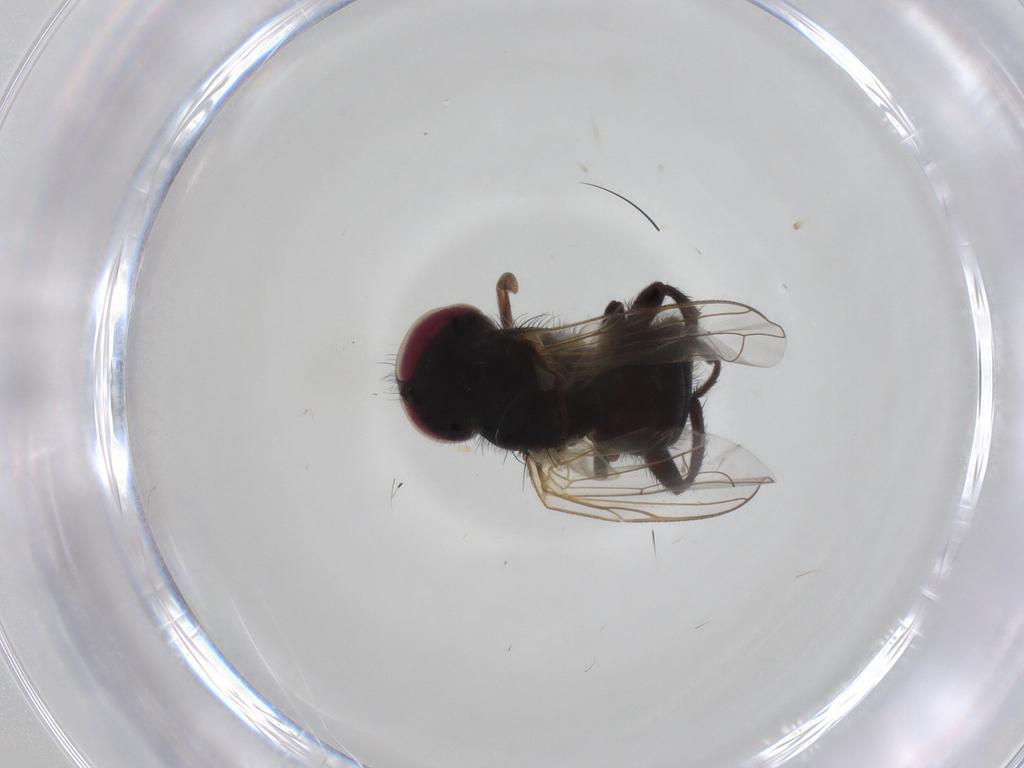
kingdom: Animalia
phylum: Arthropoda
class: Insecta
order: Diptera
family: Tachinidae
